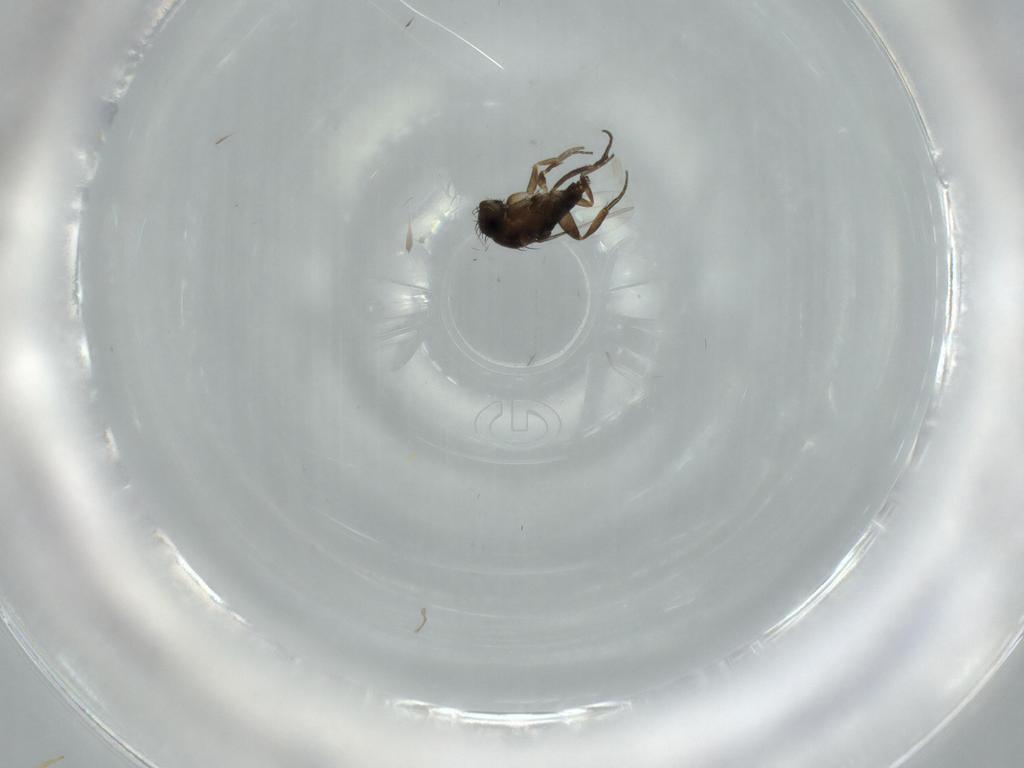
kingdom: Animalia
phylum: Arthropoda
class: Insecta
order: Diptera
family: Phoridae
